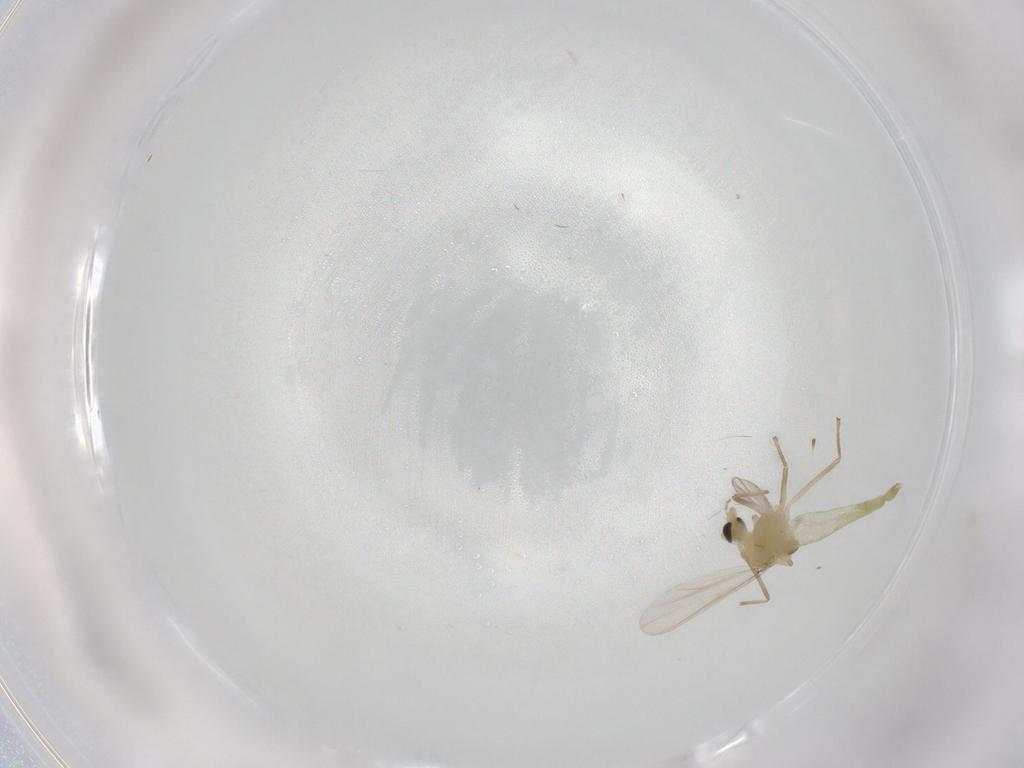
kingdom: Animalia
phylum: Arthropoda
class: Insecta
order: Diptera
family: Chironomidae
